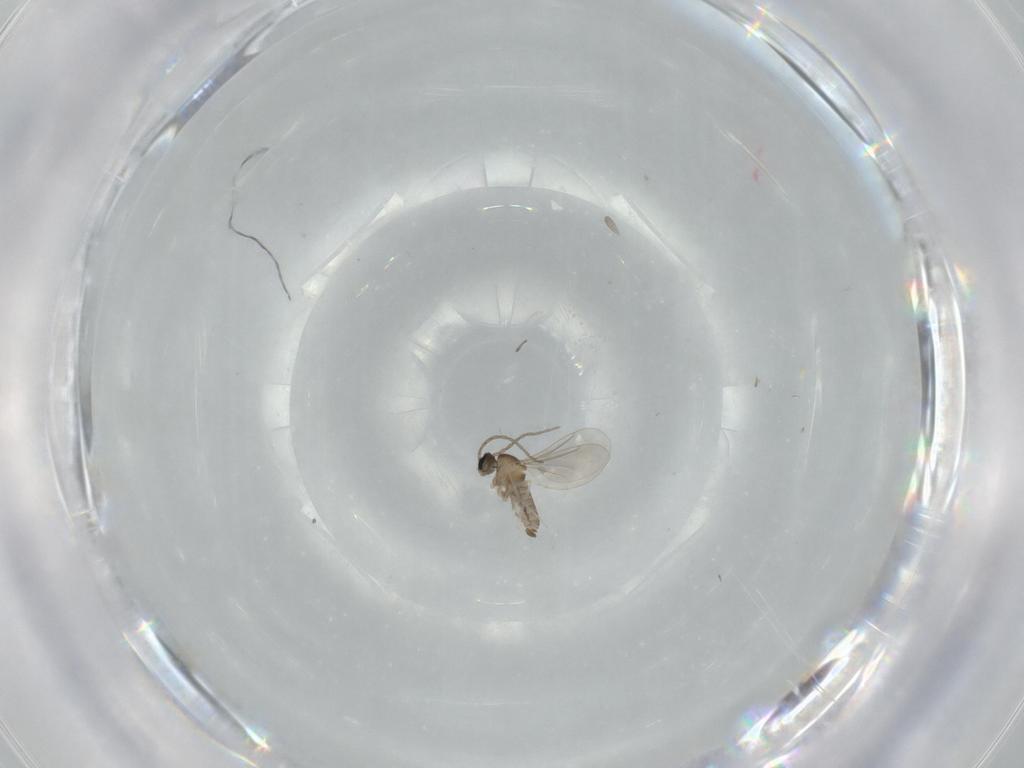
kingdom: Animalia
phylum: Arthropoda
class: Insecta
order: Diptera
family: Cecidomyiidae
